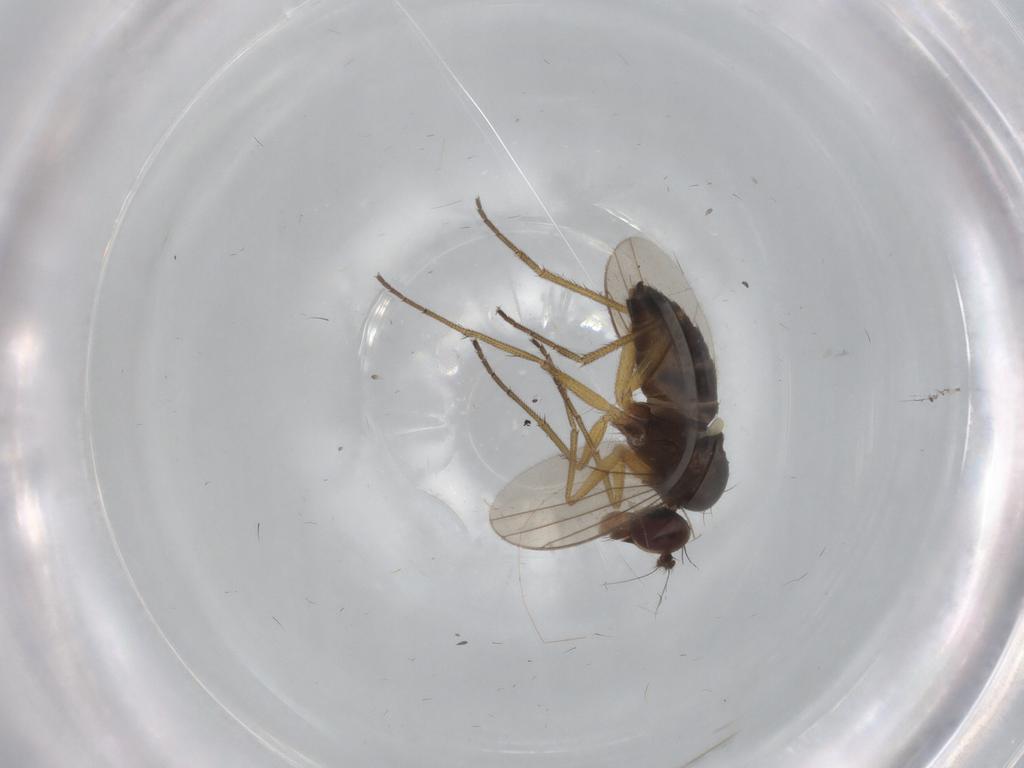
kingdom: Animalia
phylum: Arthropoda
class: Insecta
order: Diptera
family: Dolichopodidae
